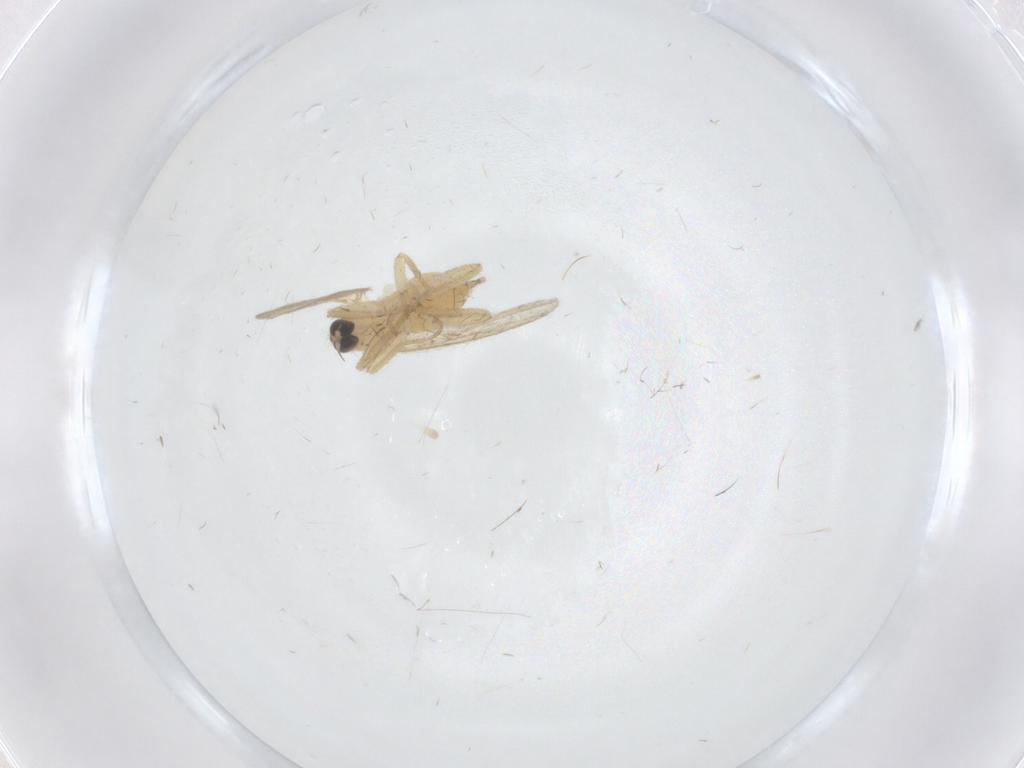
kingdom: Animalia
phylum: Arthropoda
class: Insecta
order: Diptera
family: Hybotidae
